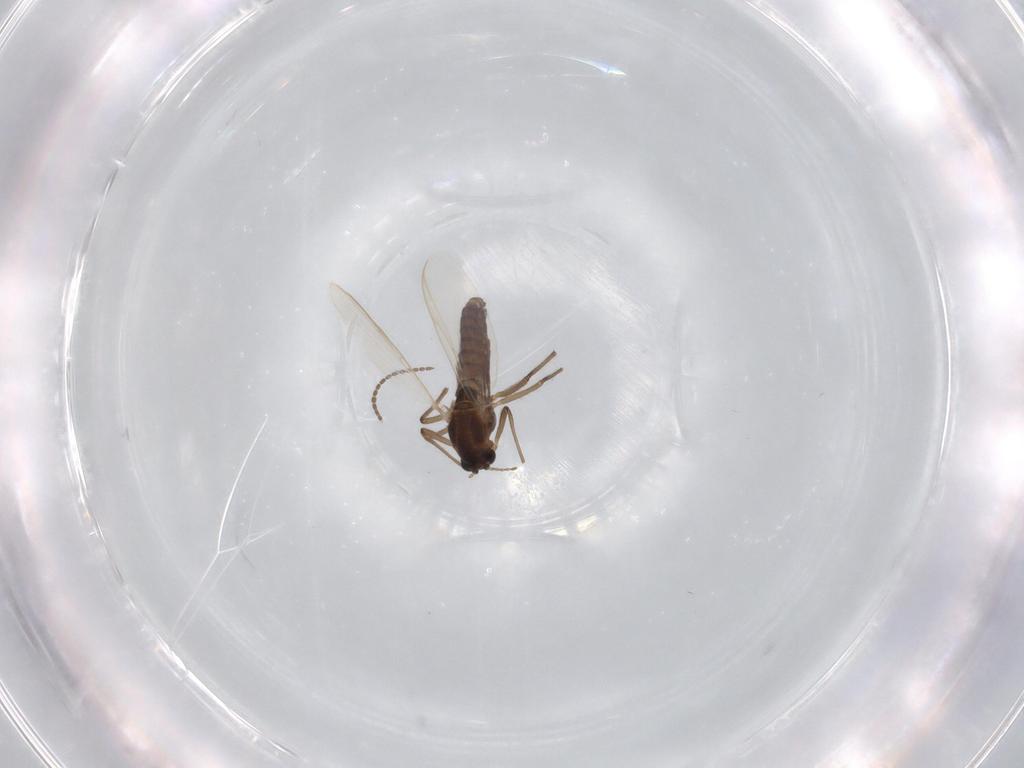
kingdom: Animalia
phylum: Arthropoda
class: Insecta
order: Diptera
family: Chironomidae
